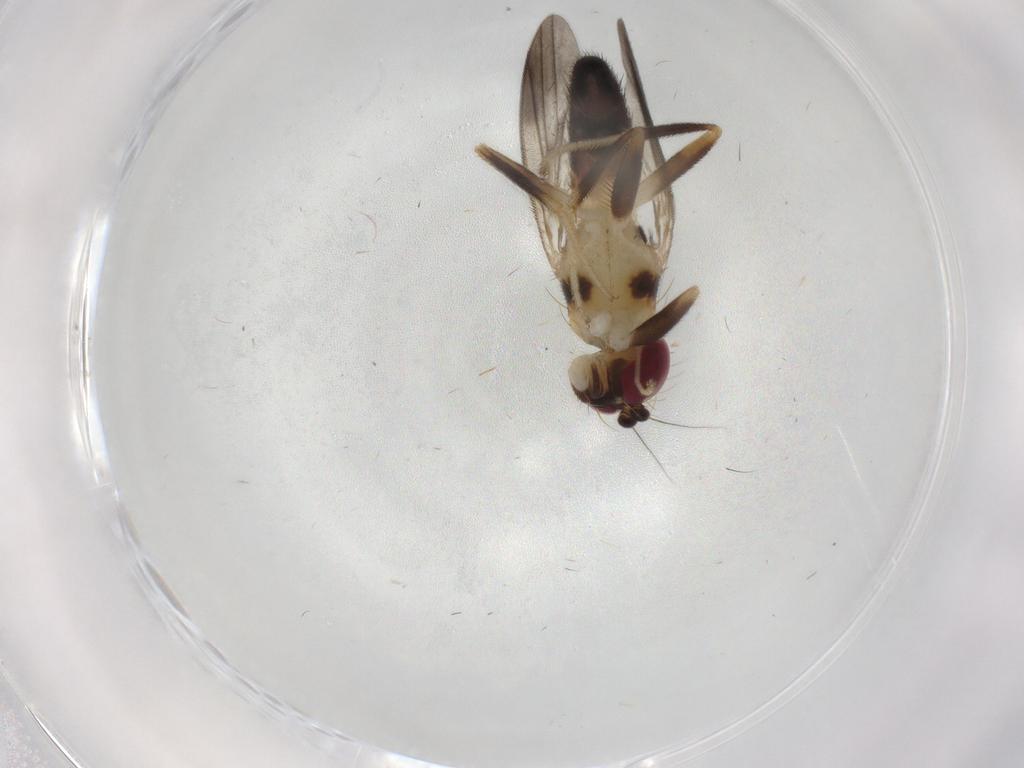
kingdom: Animalia
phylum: Arthropoda
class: Insecta
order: Diptera
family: Clusiidae
